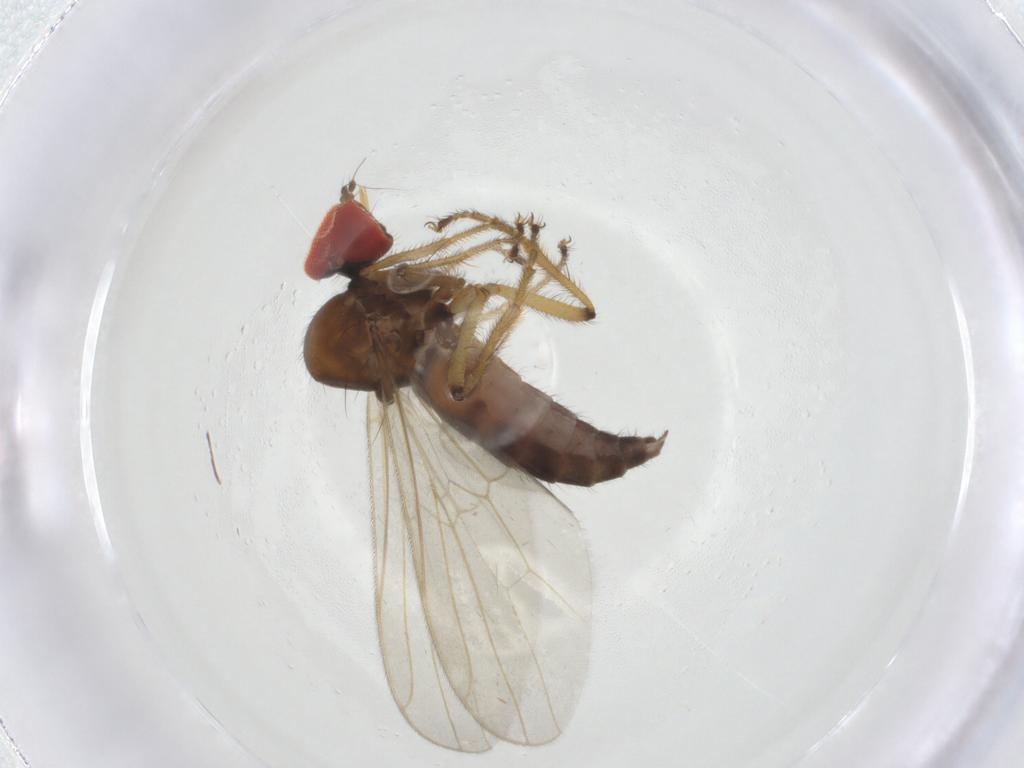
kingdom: Animalia
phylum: Arthropoda
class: Insecta
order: Diptera
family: Hybotidae
